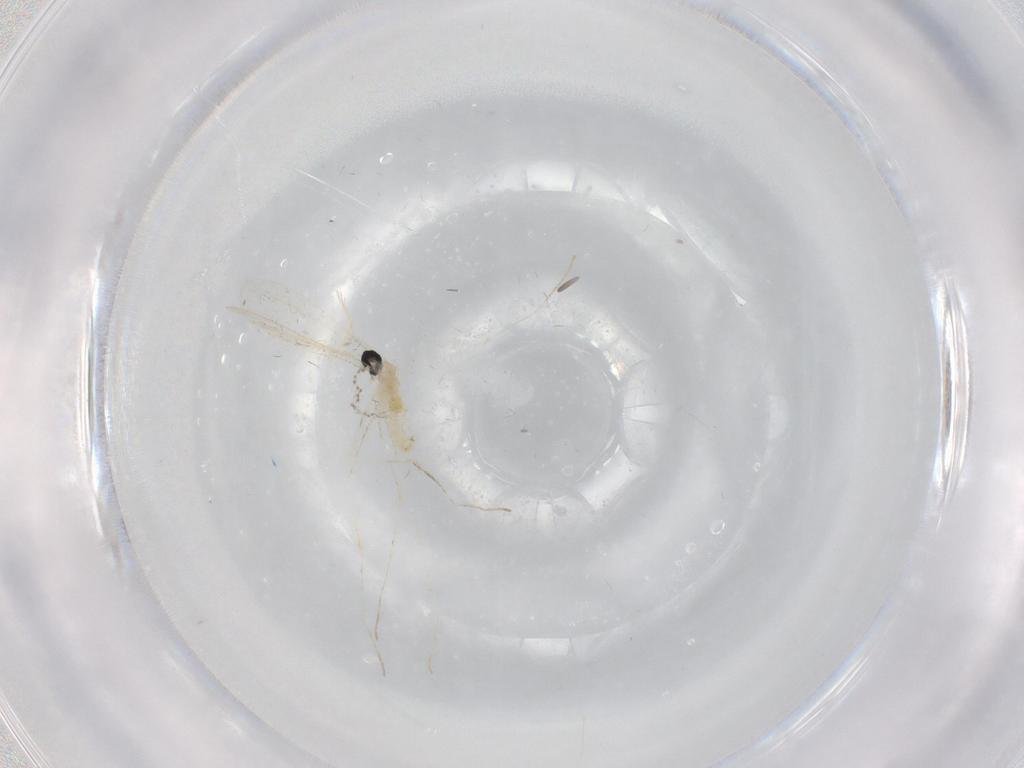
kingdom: Animalia
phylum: Arthropoda
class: Insecta
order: Diptera
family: Cecidomyiidae
